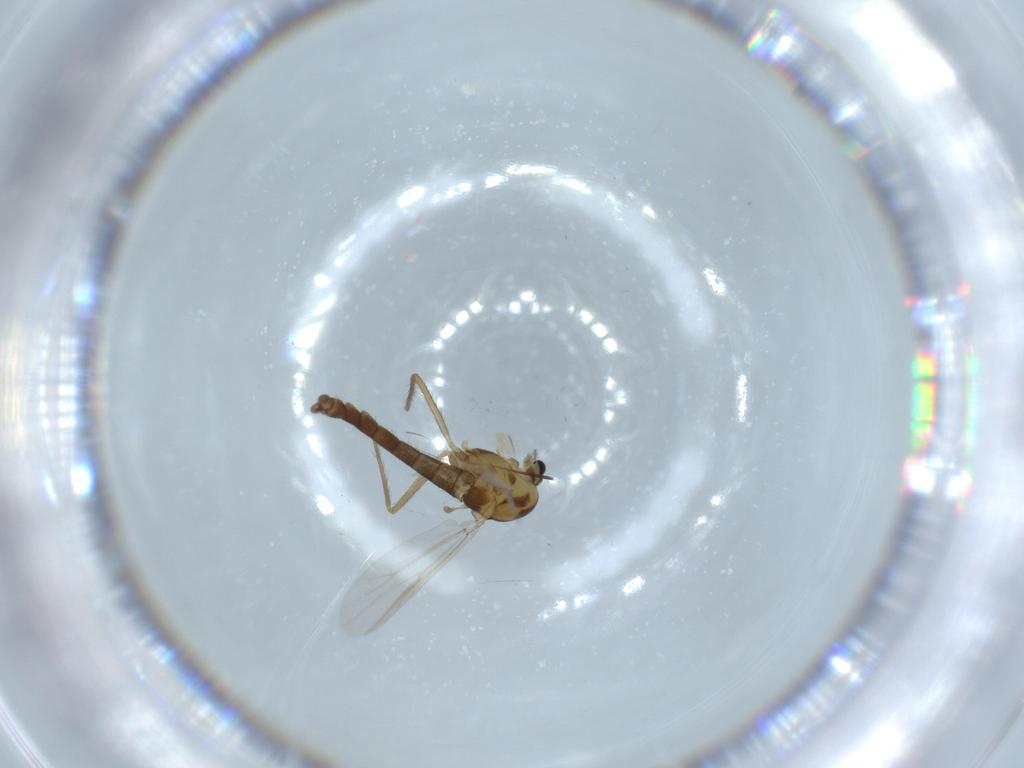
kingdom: Animalia
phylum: Arthropoda
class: Insecta
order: Diptera
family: Chironomidae
